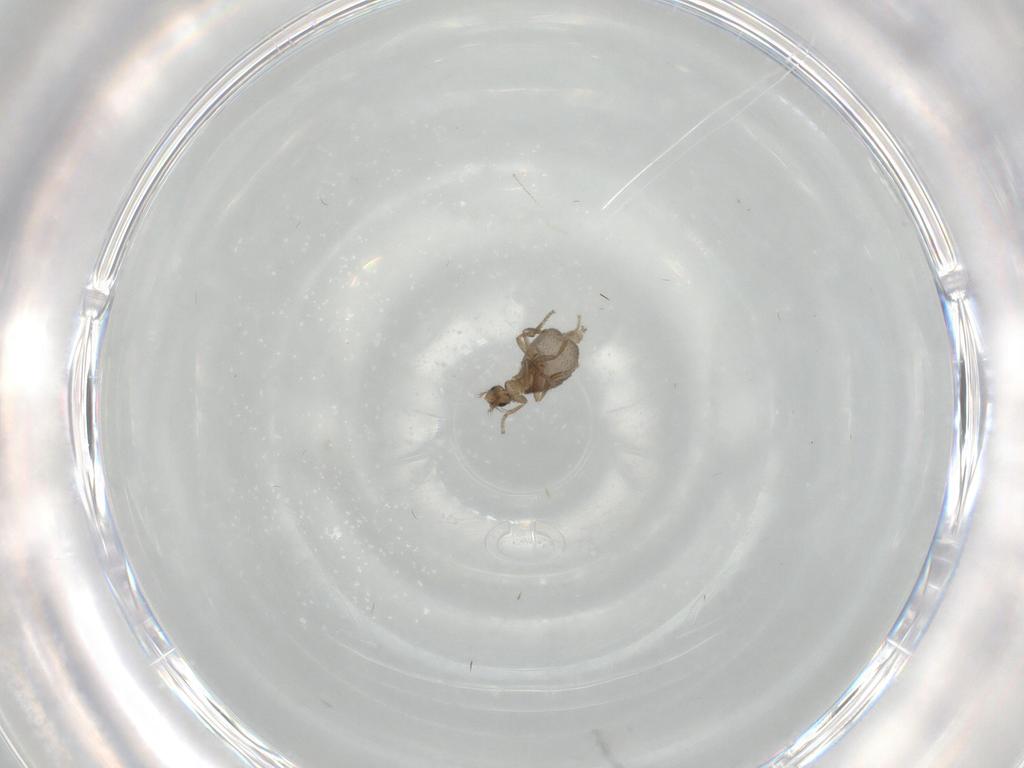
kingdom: Animalia
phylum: Arthropoda
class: Insecta
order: Diptera
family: Cecidomyiidae
